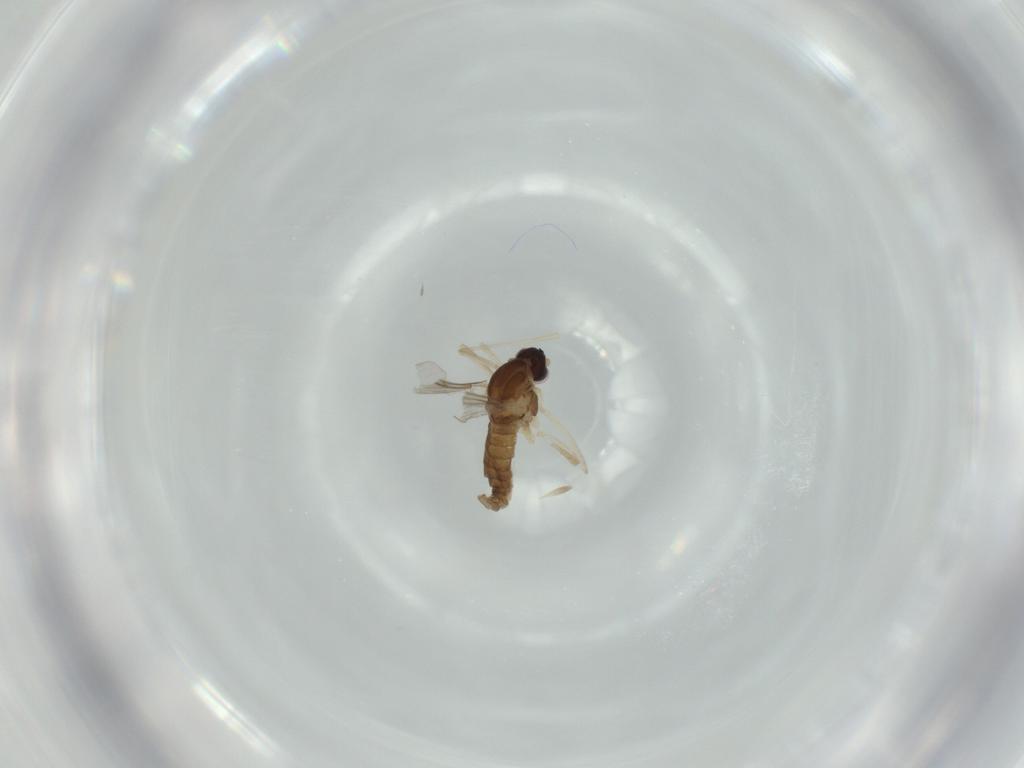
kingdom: Animalia
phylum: Arthropoda
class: Insecta
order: Diptera
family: Cecidomyiidae
